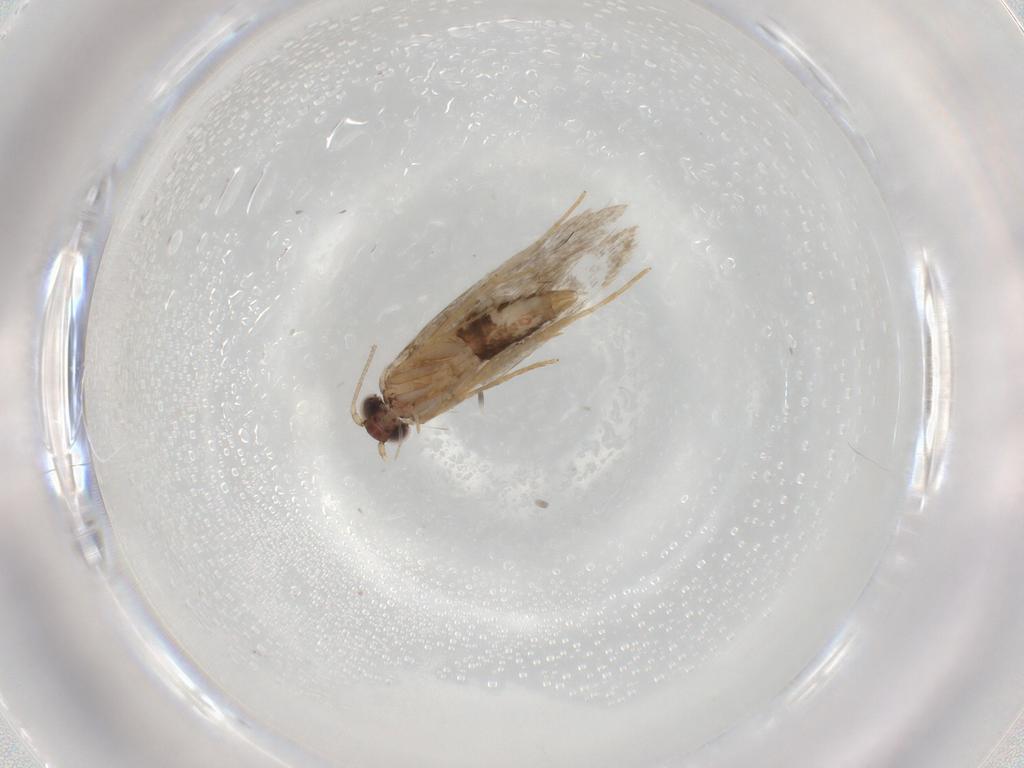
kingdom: Animalia
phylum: Arthropoda
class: Insecta
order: Lepidoptera
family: Tineidae
